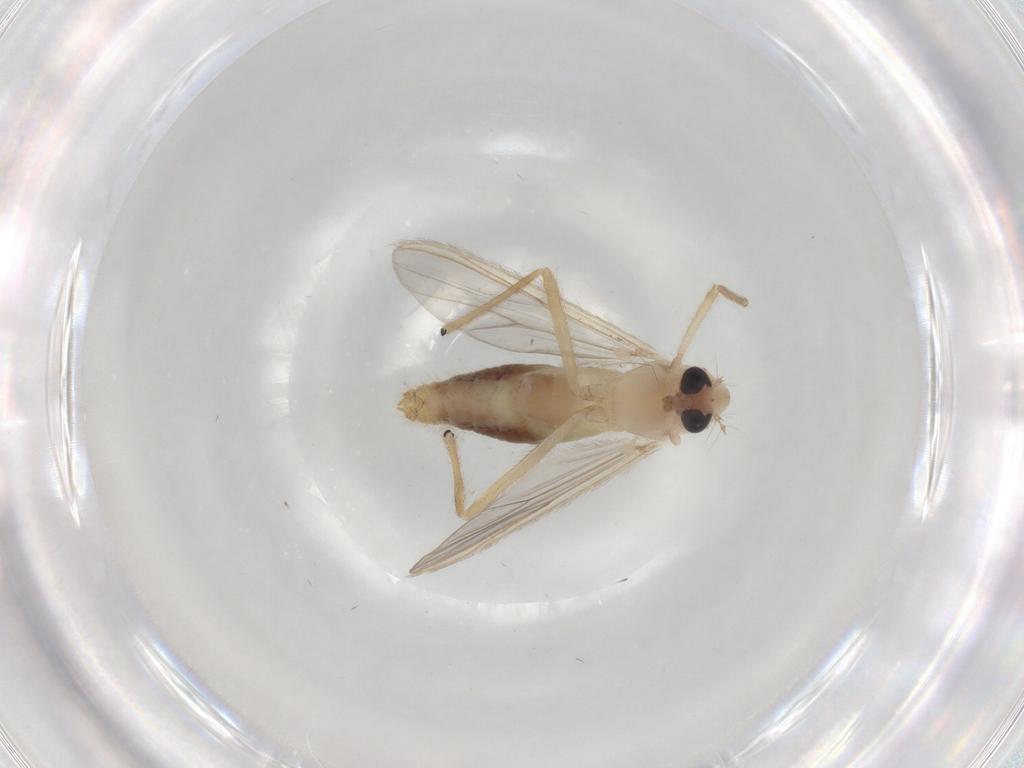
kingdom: Animalia
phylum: Arthropoda
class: Insecta
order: Diptera
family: Chironomidae
